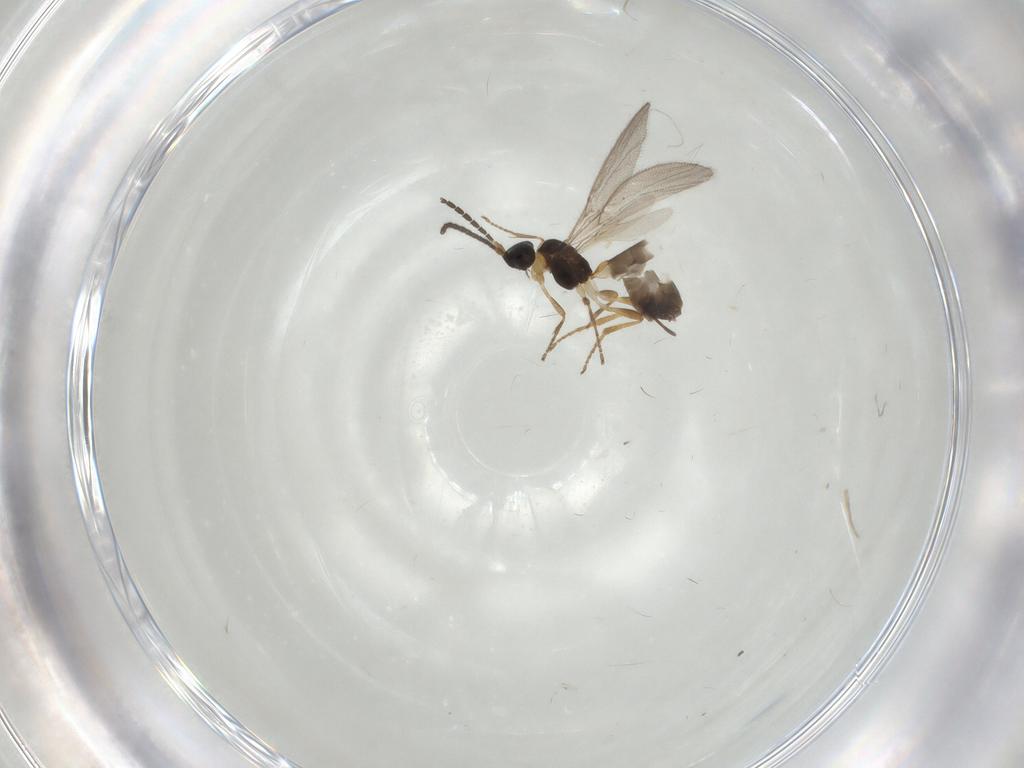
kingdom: Animalia
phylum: Arthropoda
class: Insecta
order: Hymenoptera
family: Braconidae
